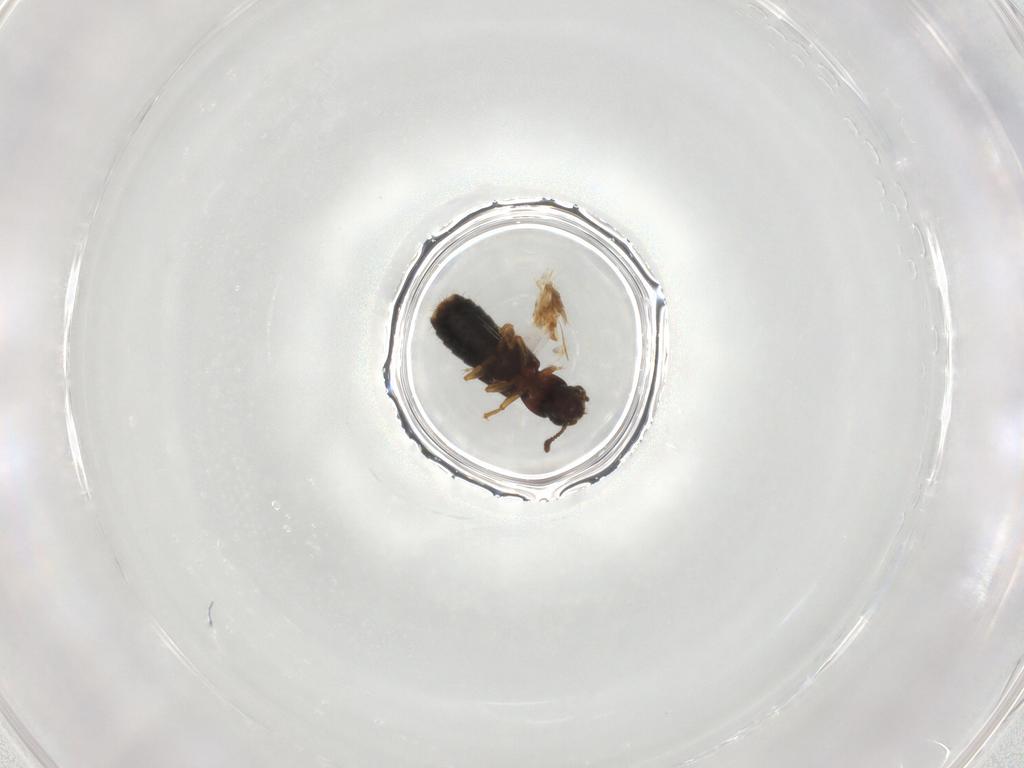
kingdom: Animalia
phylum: Arthropoda
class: Insecta
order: Coleoptera
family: Staphylinidae
